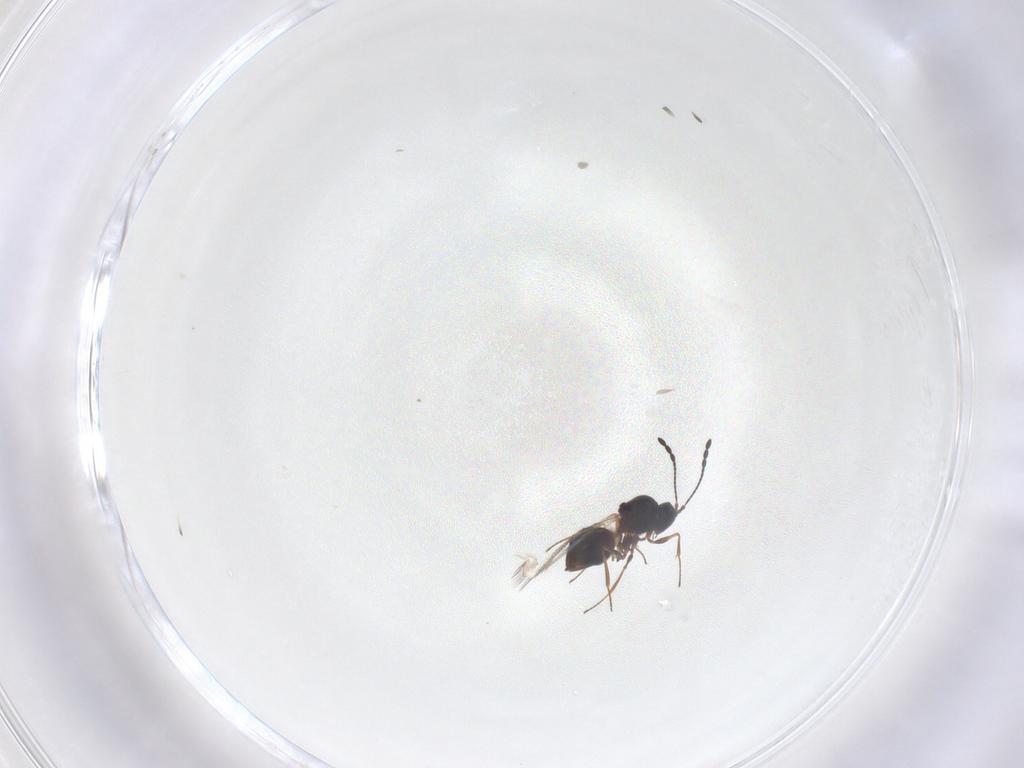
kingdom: Animalia
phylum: Arthropoda
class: Insecta
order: Hymenoptera
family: Figitidae
